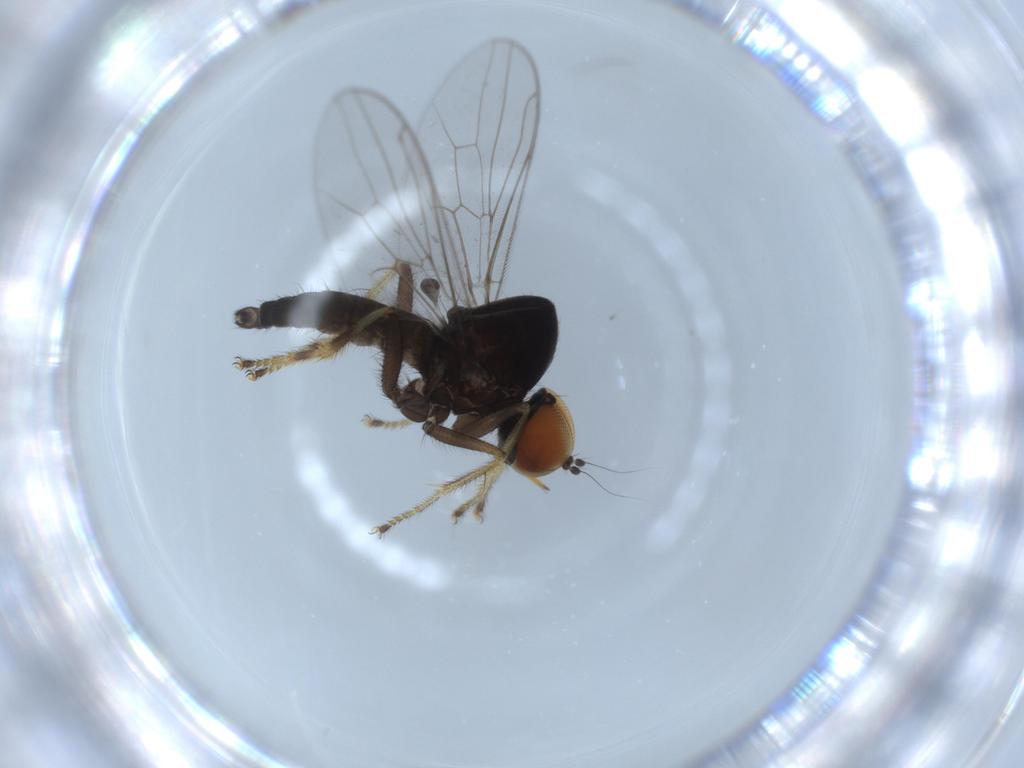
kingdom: Animalia
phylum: Arthropoda
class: Insecta
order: Diptera
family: Hybotidae
